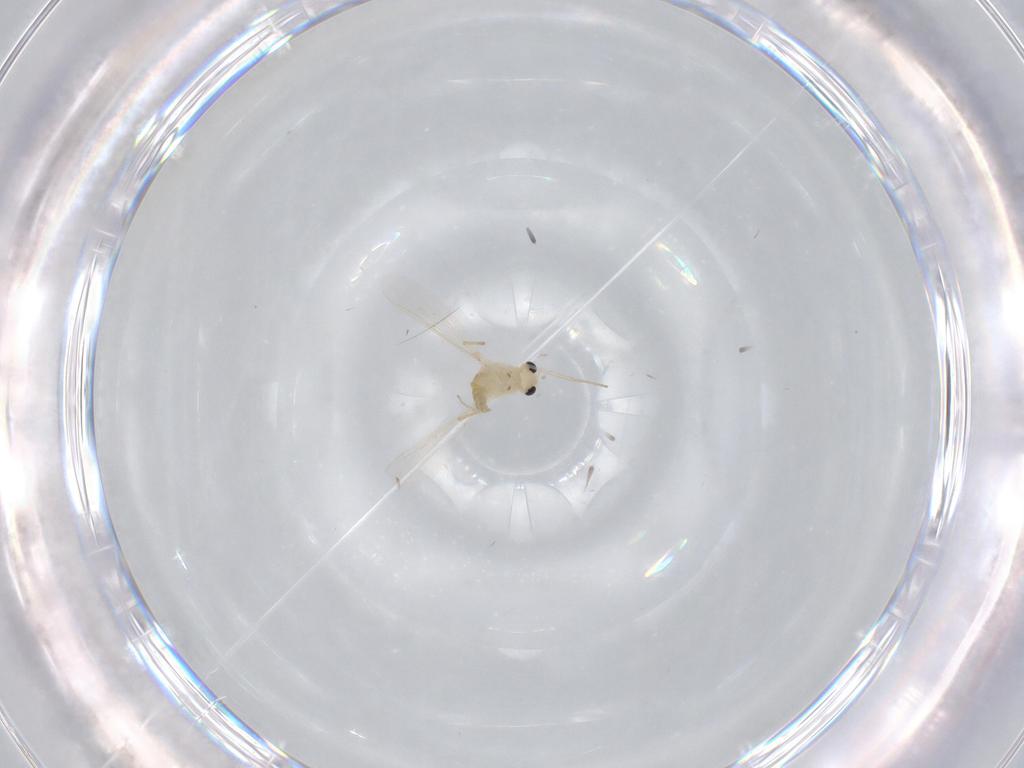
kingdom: Animalia
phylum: Arthropoda
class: Insecta
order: Diptera
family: Chironomidae
